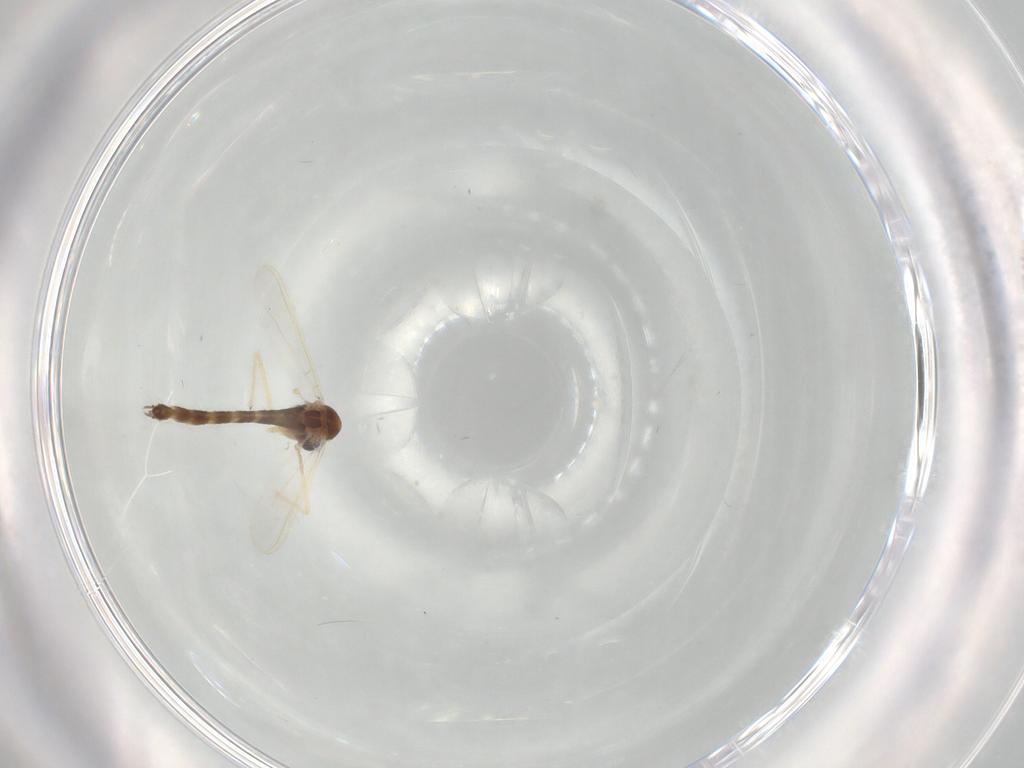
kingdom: Animalia
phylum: Arthropoda
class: Insecta
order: Diptera
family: Chironomidae
